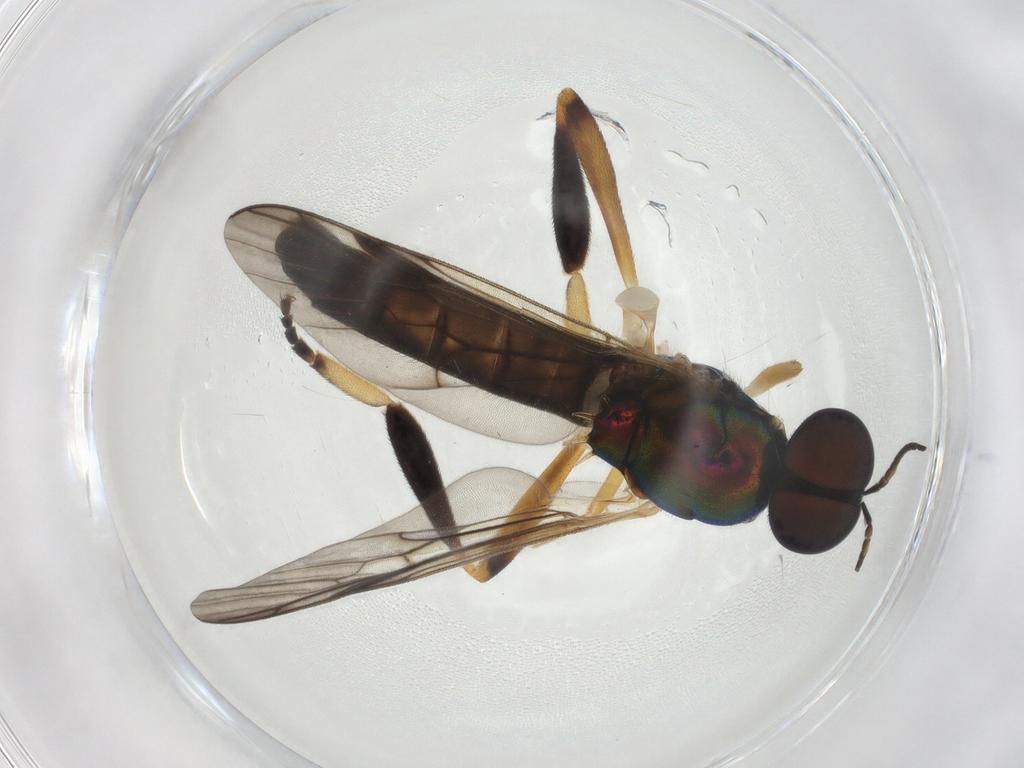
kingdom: Animalia
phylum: Arthropoda
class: Insecta
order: Diptera
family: Stratiomyidae
